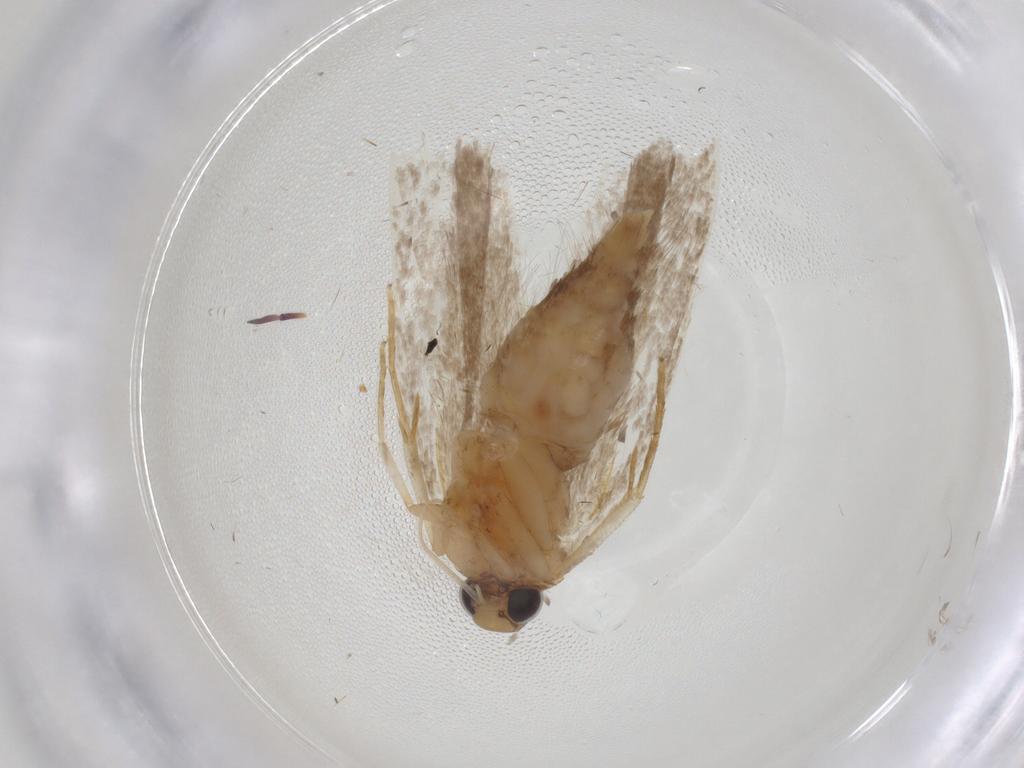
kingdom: Animalia
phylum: Arthropoda
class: Insecta
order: Lepidoptera
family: Gelechiidae
